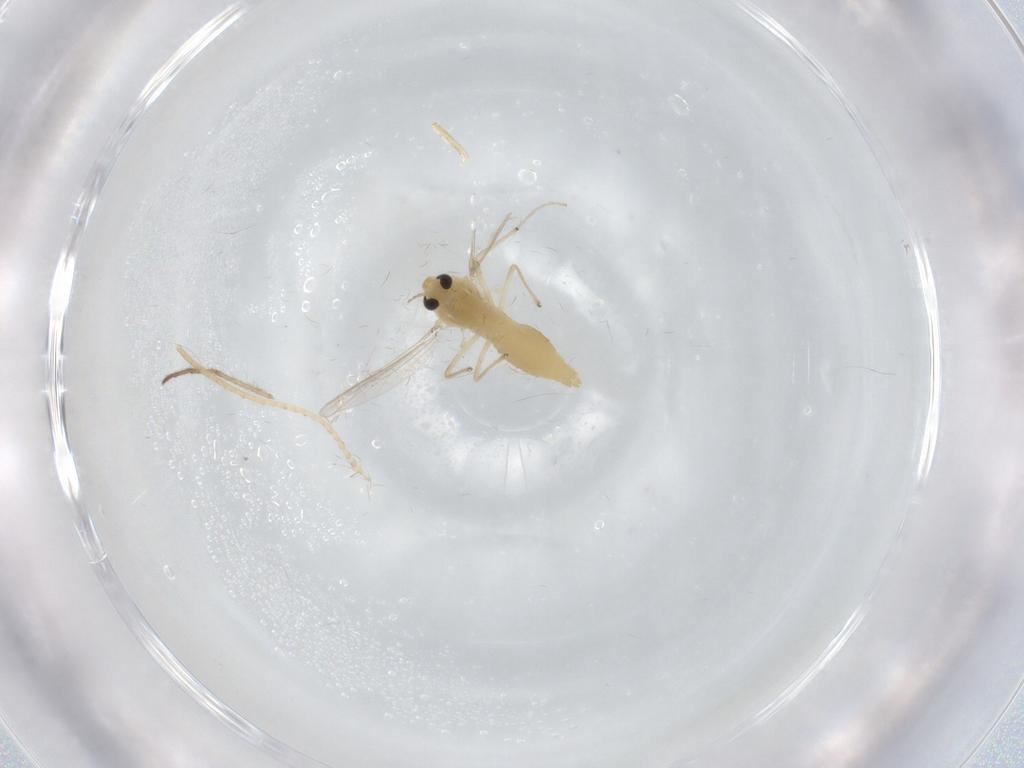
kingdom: Animalia
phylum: Arthropoda
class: Insecta
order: Diptera
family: Chironomidae
